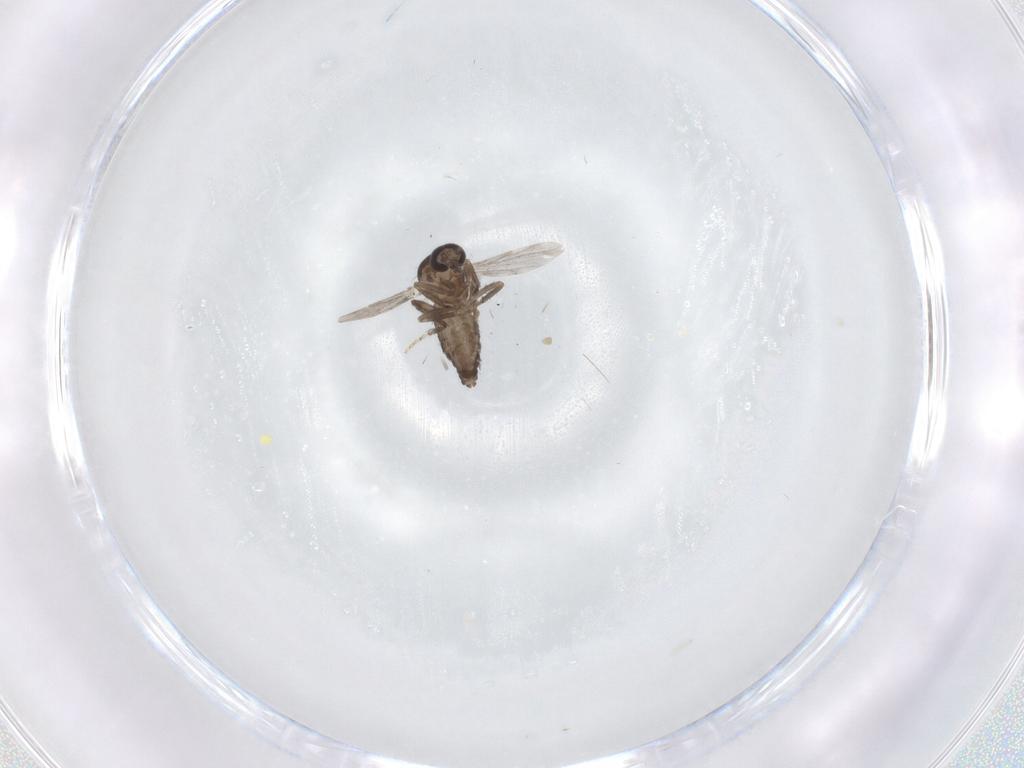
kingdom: Animalia
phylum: Arthropoda
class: Insecta
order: Diptera
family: Ceratopogonidae
